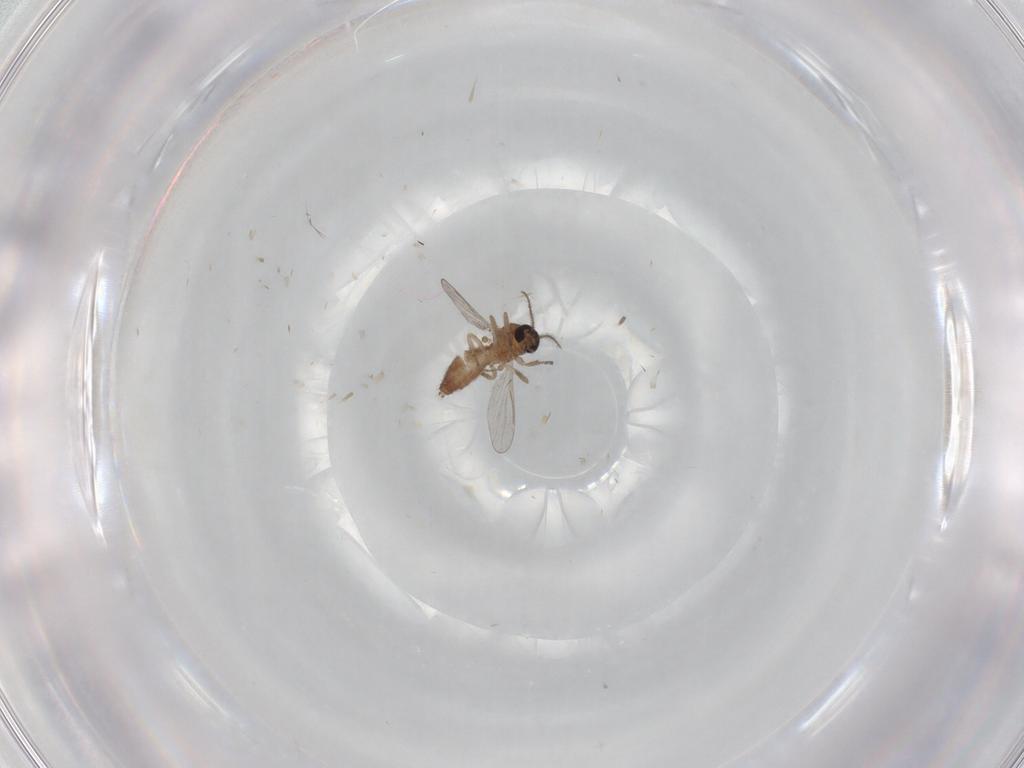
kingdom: Animalia
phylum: Arthropoda
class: Insecta
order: Diptera
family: Ceratopogonidae
